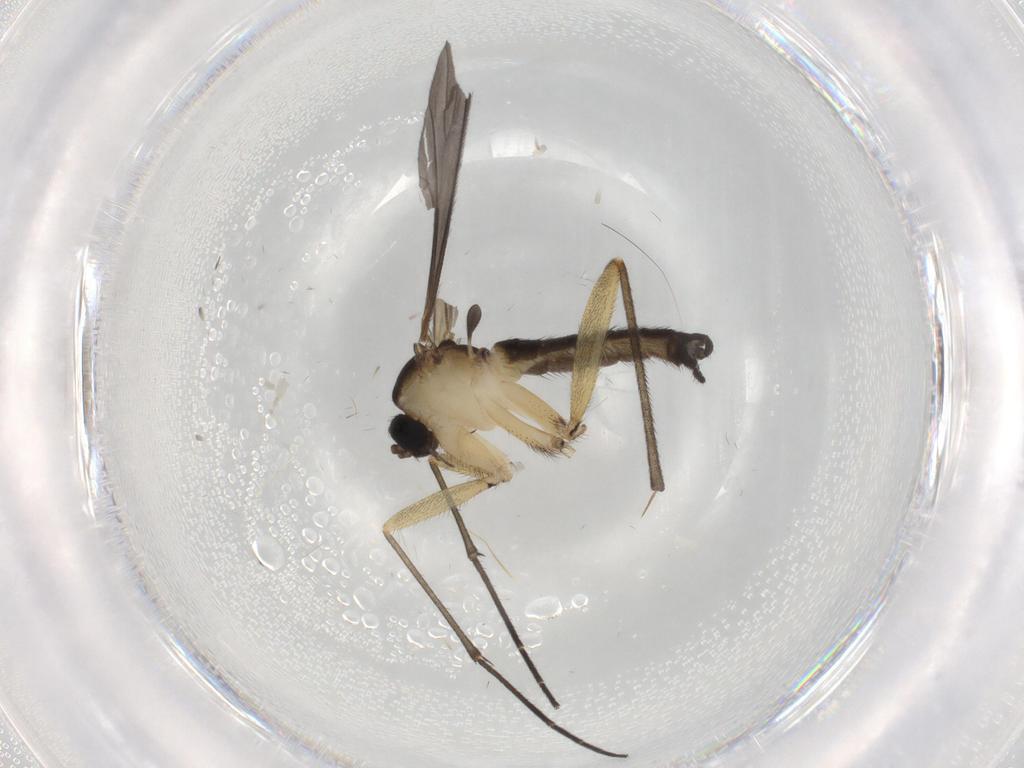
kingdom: Animalia
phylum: Arthropoda
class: Insecta
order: Diptera
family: Sciaridae
